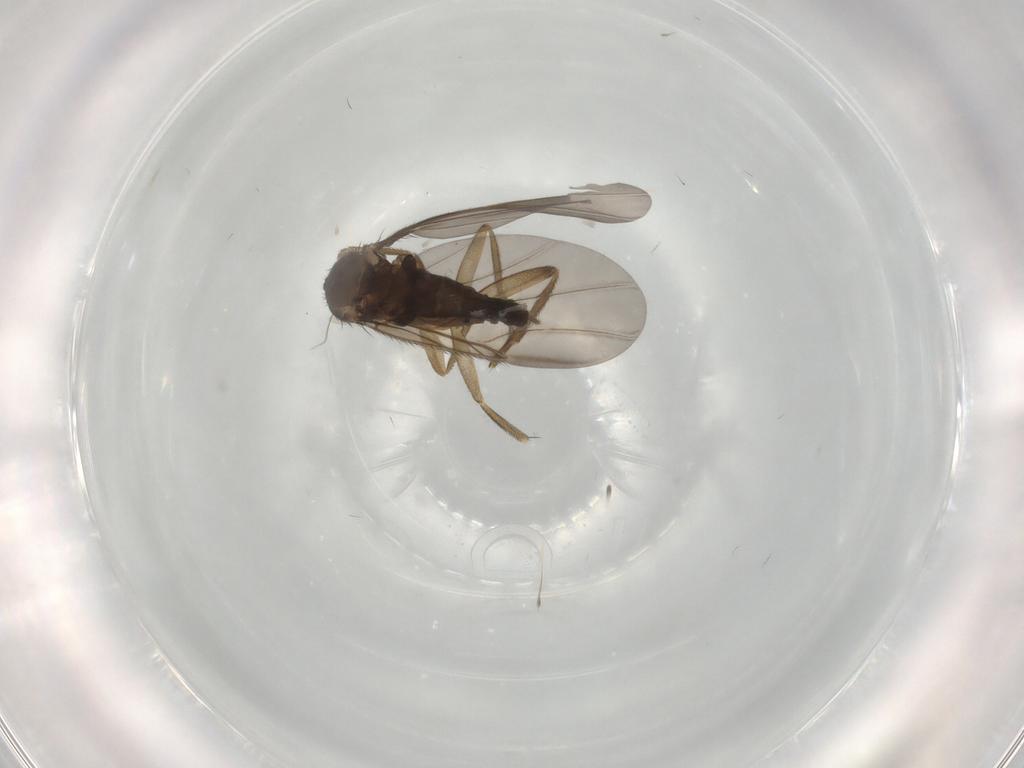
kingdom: Animalia
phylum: Arthropoda
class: Insecta
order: Diptera
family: Phoridae
